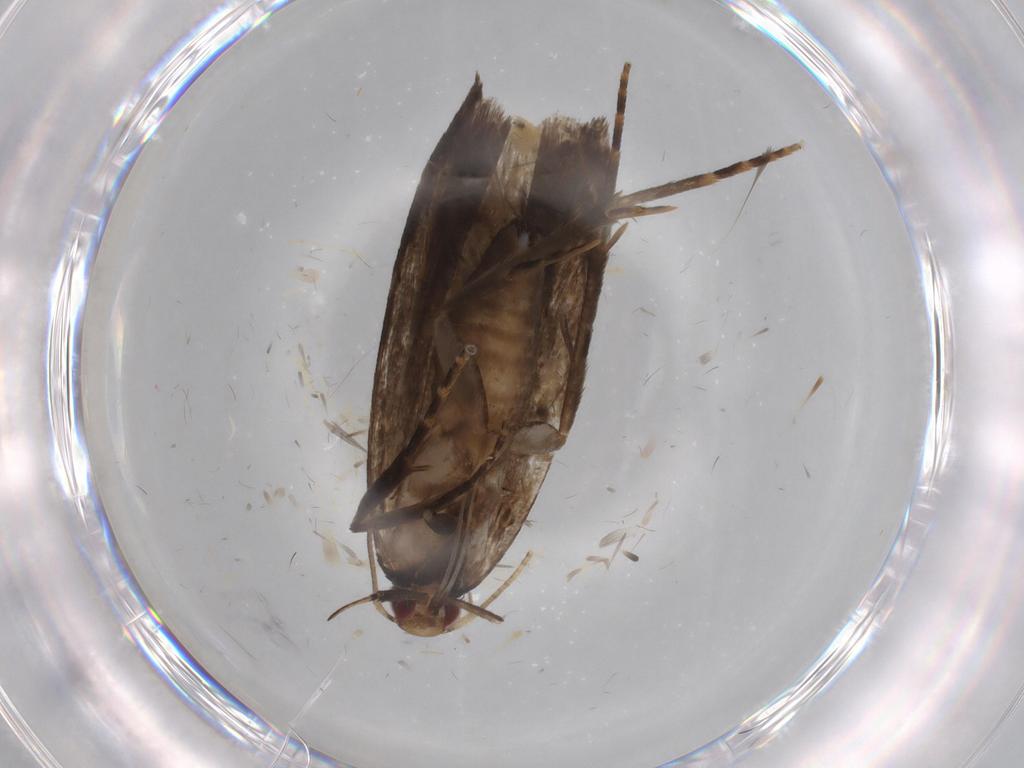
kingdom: Animalia
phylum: Arthropoda
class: Insecta
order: Lepidoptera
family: Gelechiidae
